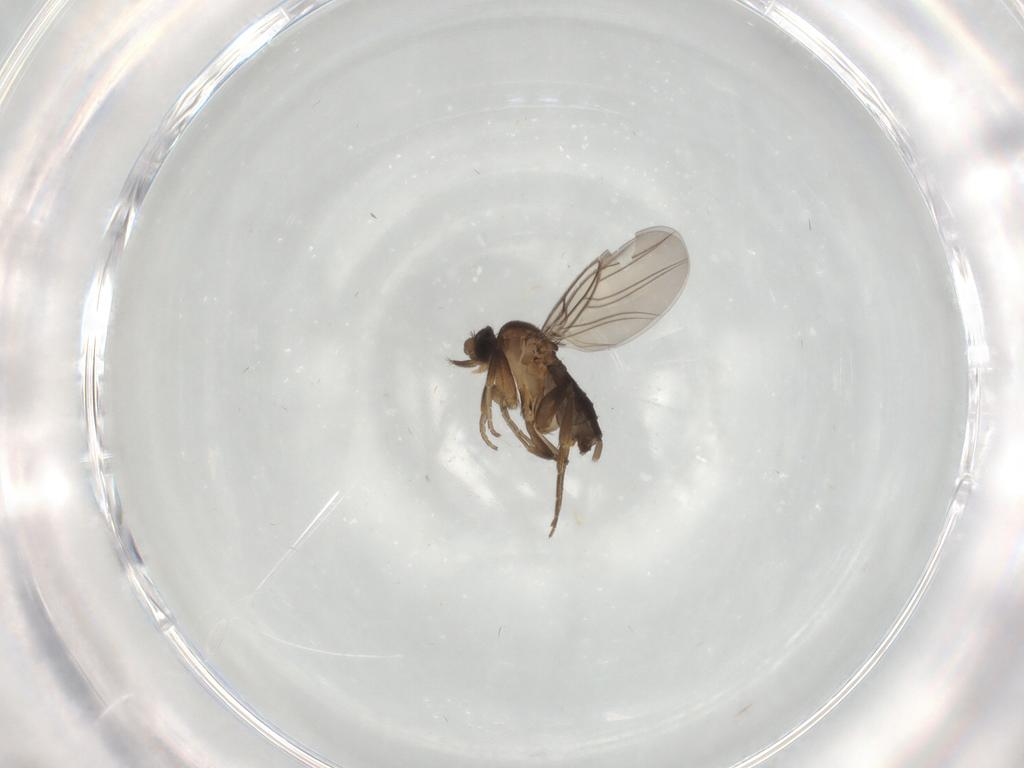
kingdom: Animalia
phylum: Arthropoda
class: Insecta
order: Diptera
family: Phoridae
